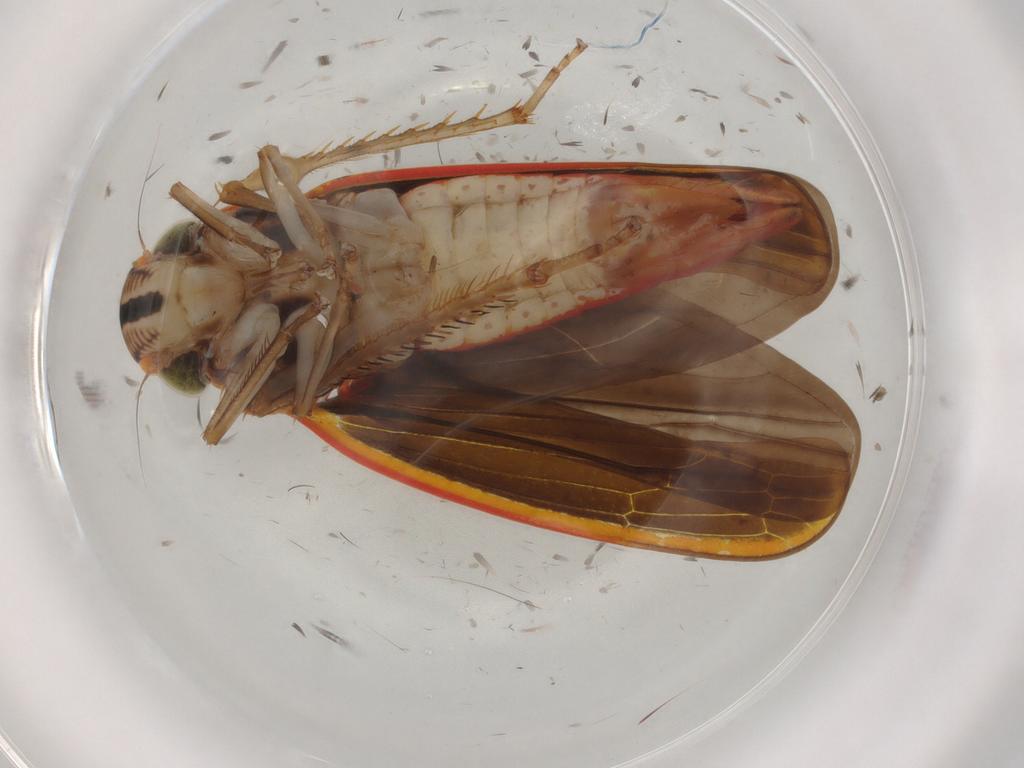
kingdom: Animalia
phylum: Arthropoda
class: Insecta
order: Hemiptera
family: Cicadellidae
